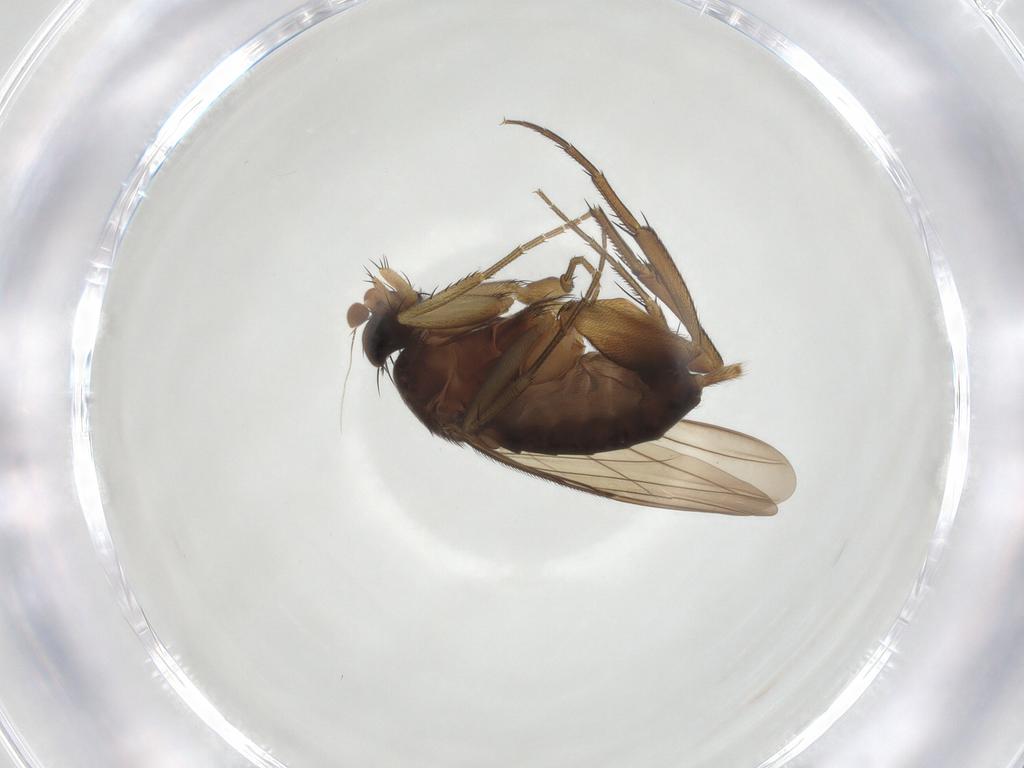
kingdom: Animalia
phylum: Arthropoda
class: Insecta
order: Diptera
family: Phoridae
